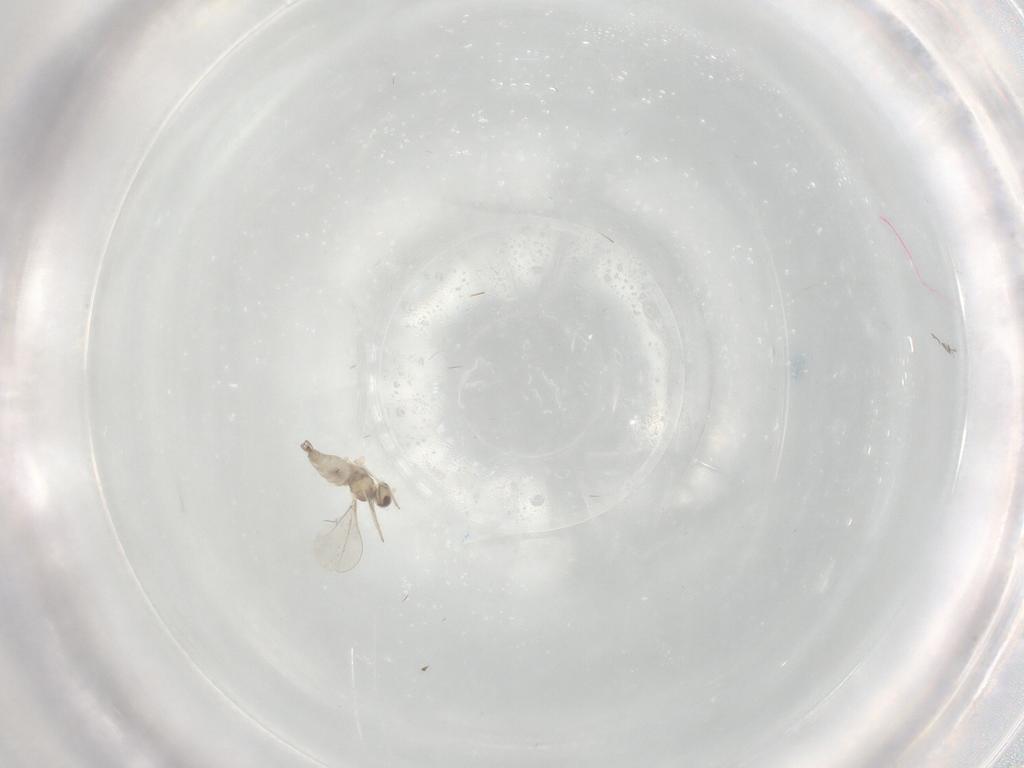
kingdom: Animalia
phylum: Arthropoda
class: Insecta
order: Diptera
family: Cecidomyiidae
